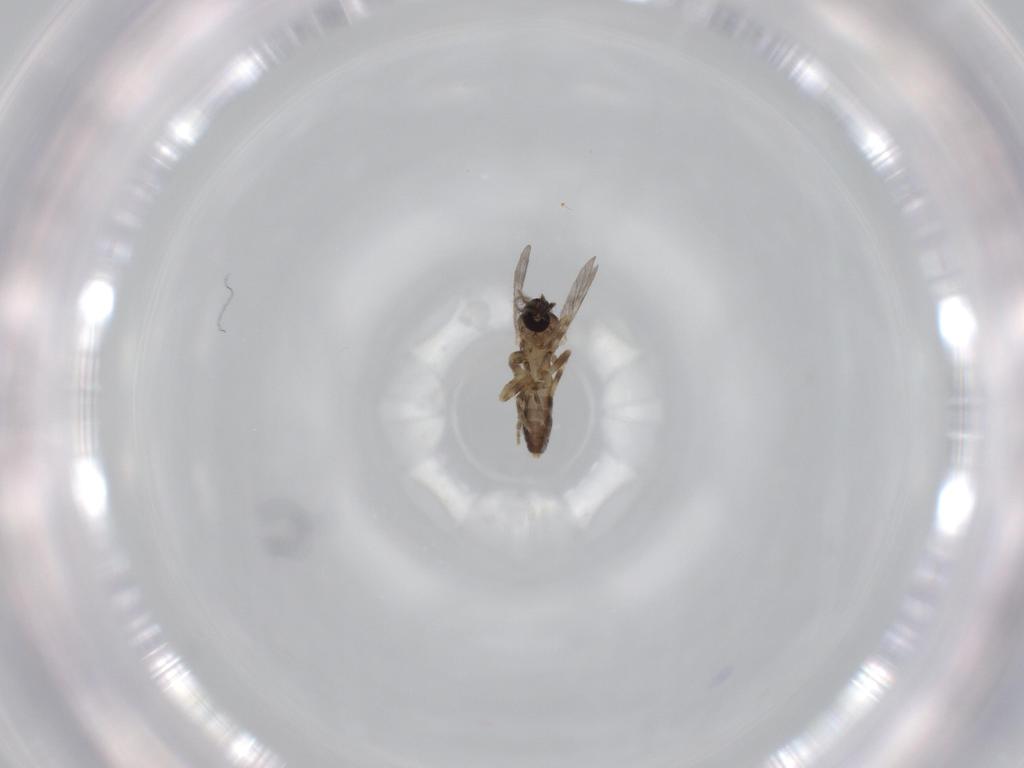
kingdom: Animalia
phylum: Arthropoda
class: Insecta
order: Diptera
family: Ceratopogonidae
